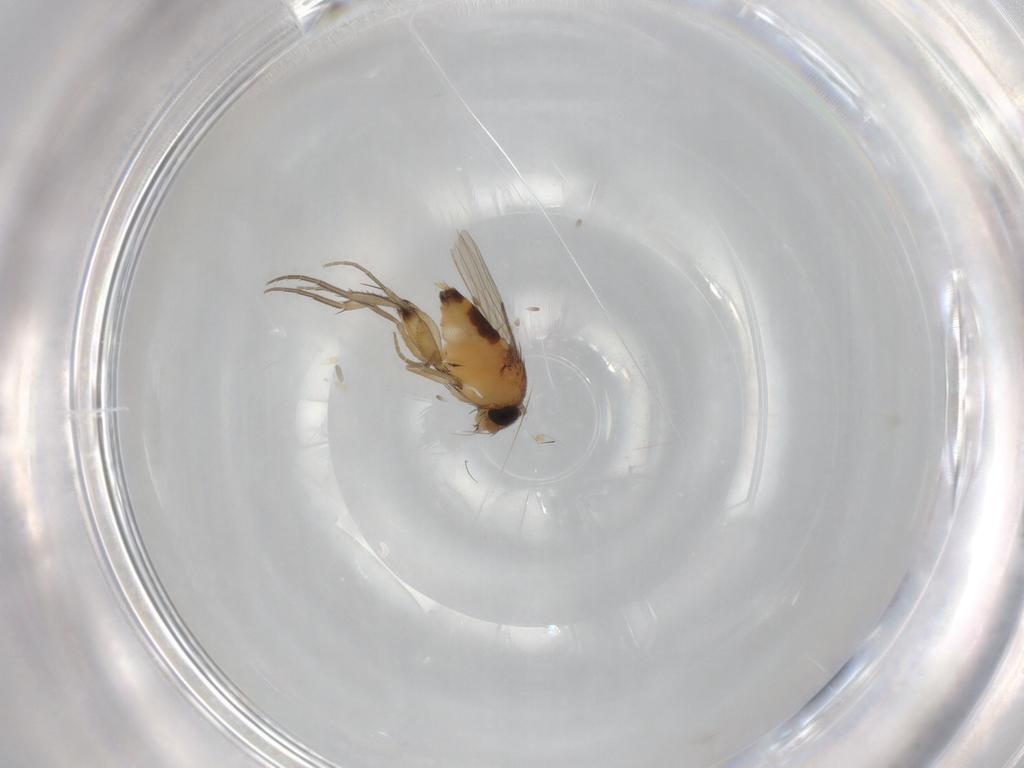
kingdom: Animalia
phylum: Arthropoda
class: Insecta
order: Diptera
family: Phoridae
